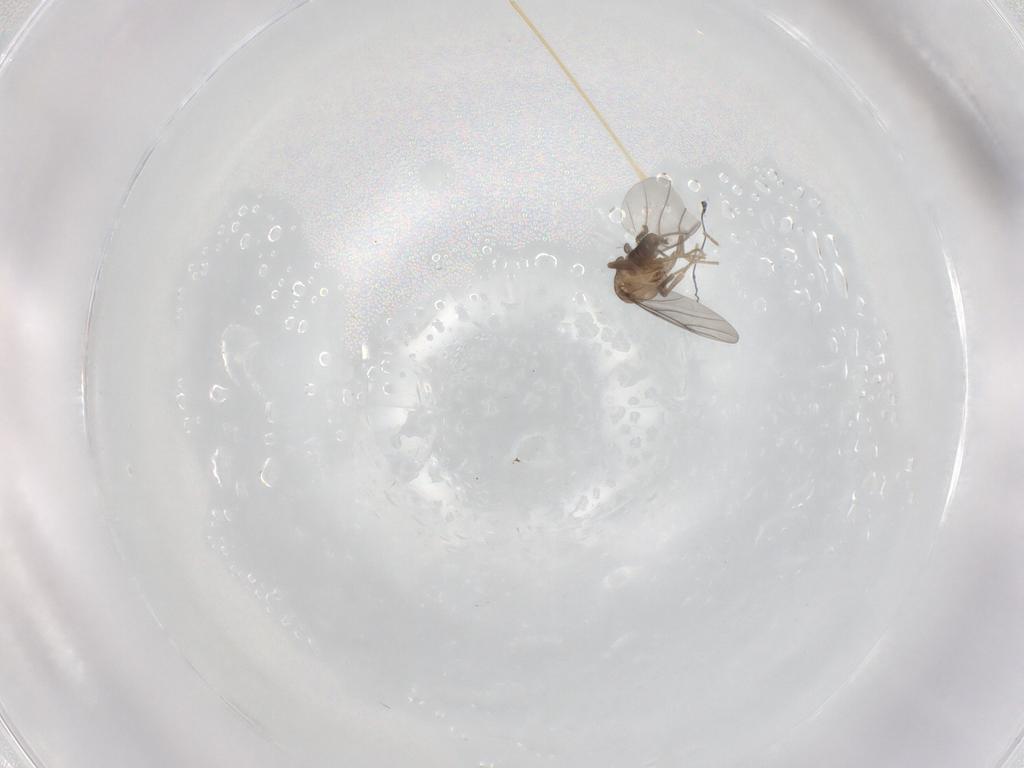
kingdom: Animalia
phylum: Arthropoda
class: Insecta
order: Diptera
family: Limoniidae
